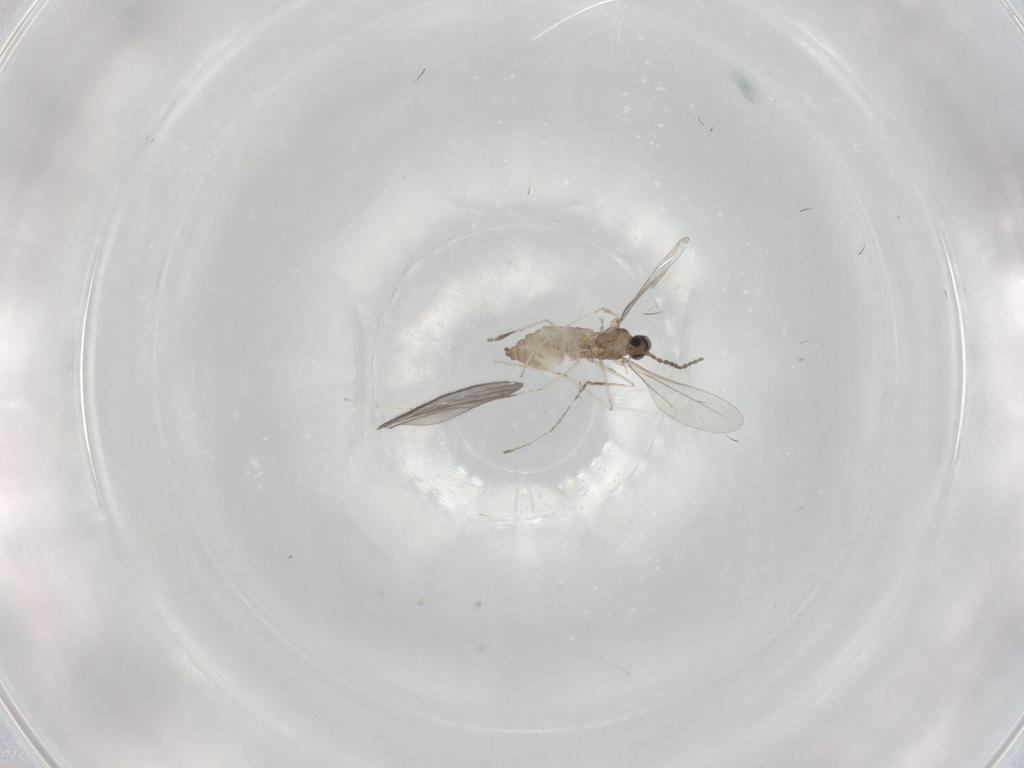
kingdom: Animalia
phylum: Arthropoda
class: Insecta
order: Diptera
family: Cecidomyiidae
